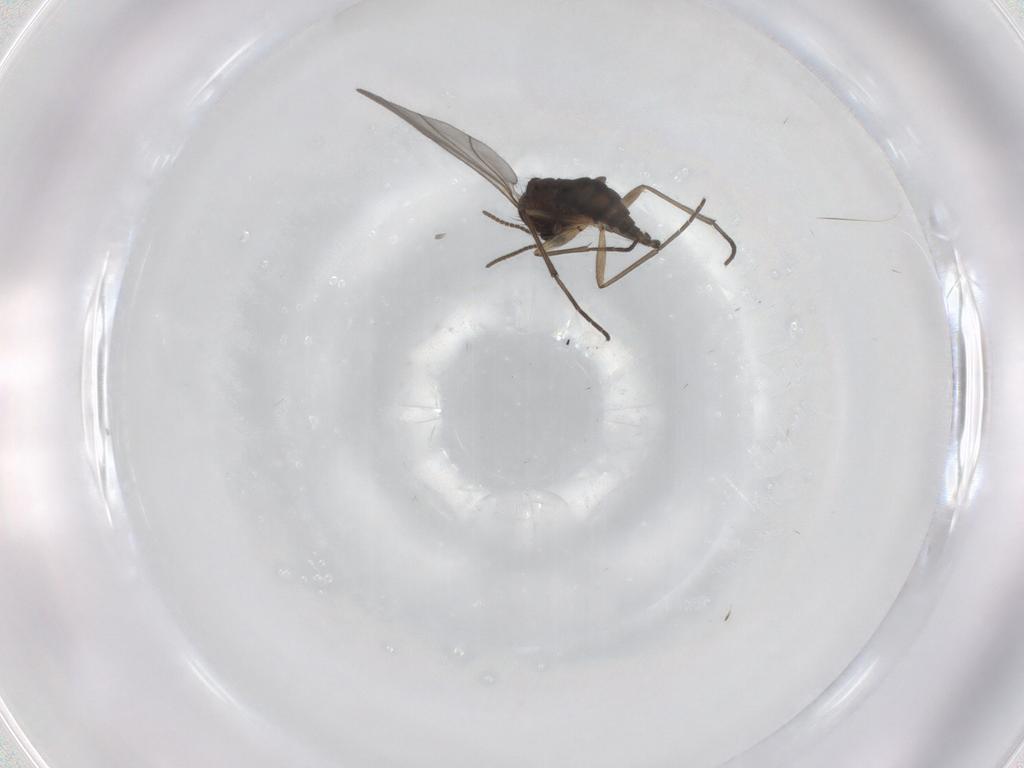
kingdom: Animalia
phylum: Arthropoda
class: Insecta
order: Diptera
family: Sciaridae
